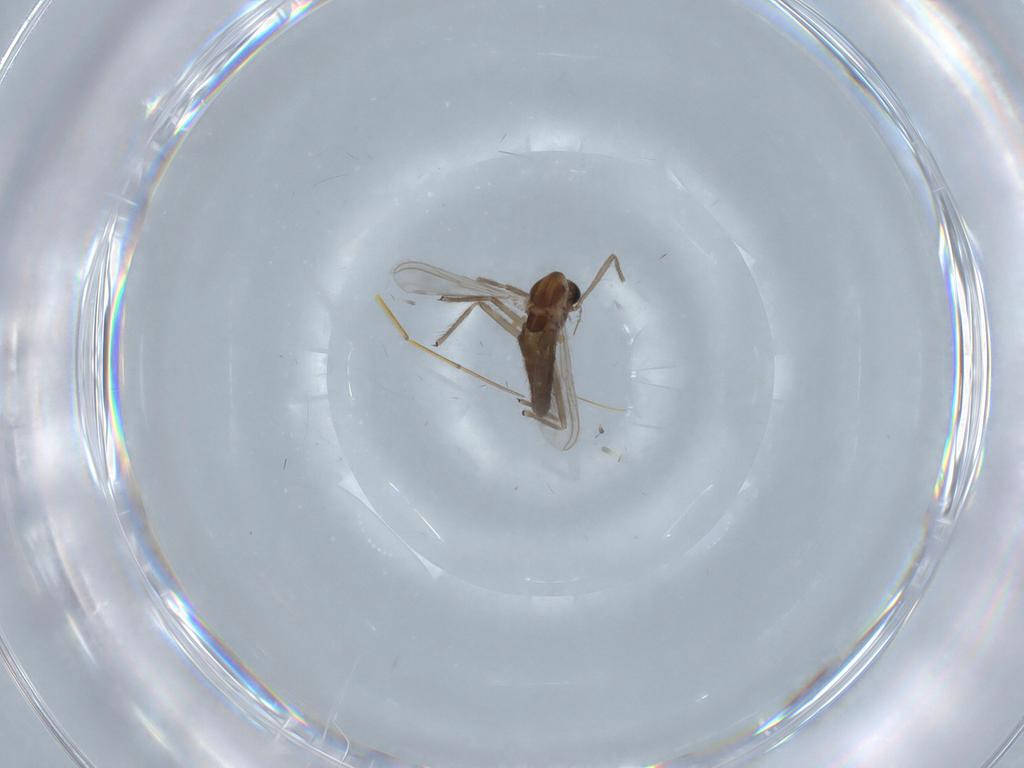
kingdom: Animalia
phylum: Arthropoda
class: Insecta
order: Diptera
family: Chironomidae
